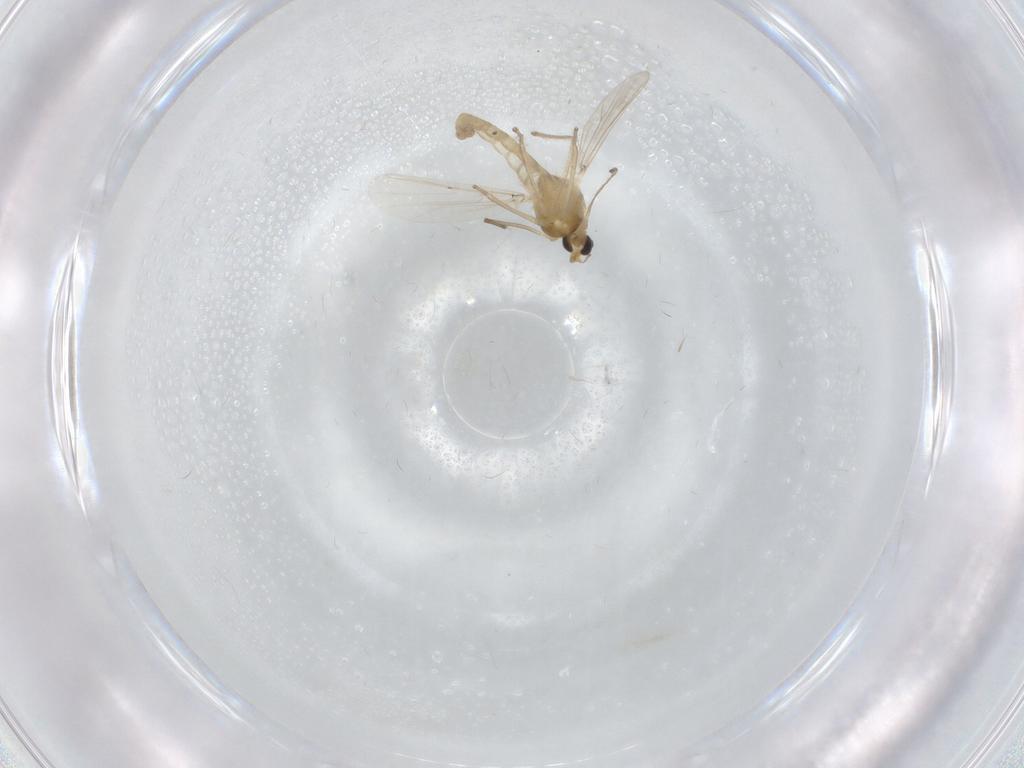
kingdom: Animalia
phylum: Arthropoda
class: Insecta
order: Diptera
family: Chironomidae
